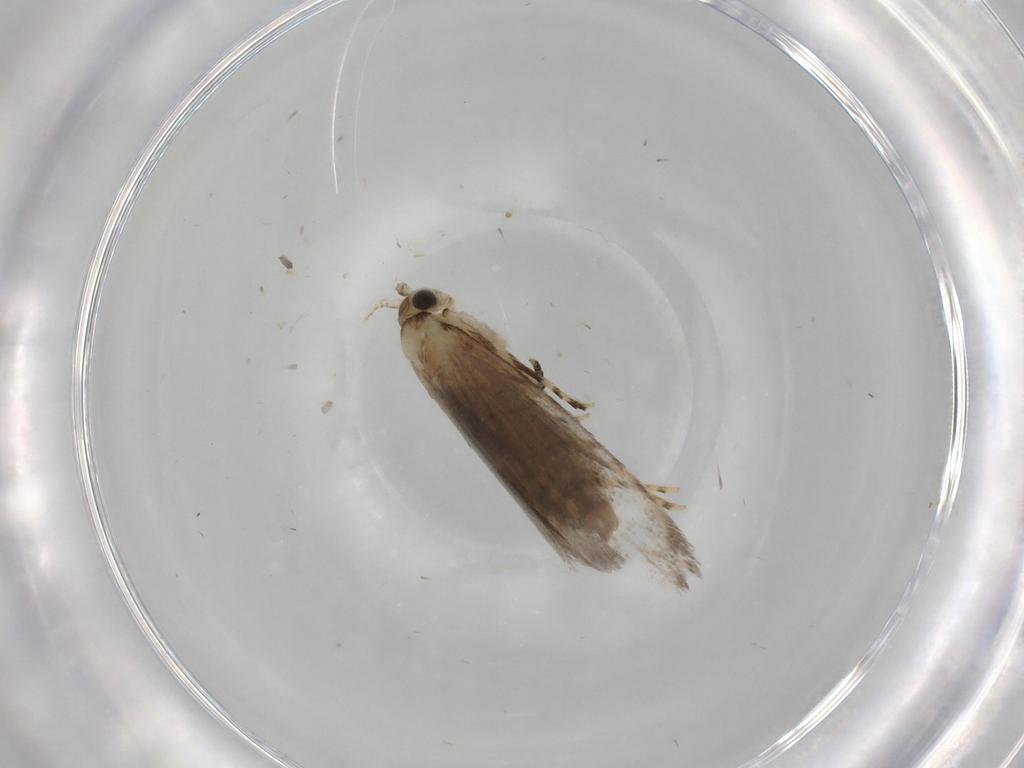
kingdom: Animalia
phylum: Arthropoda
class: Insecta
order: Lepidoptera
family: Tineidae
